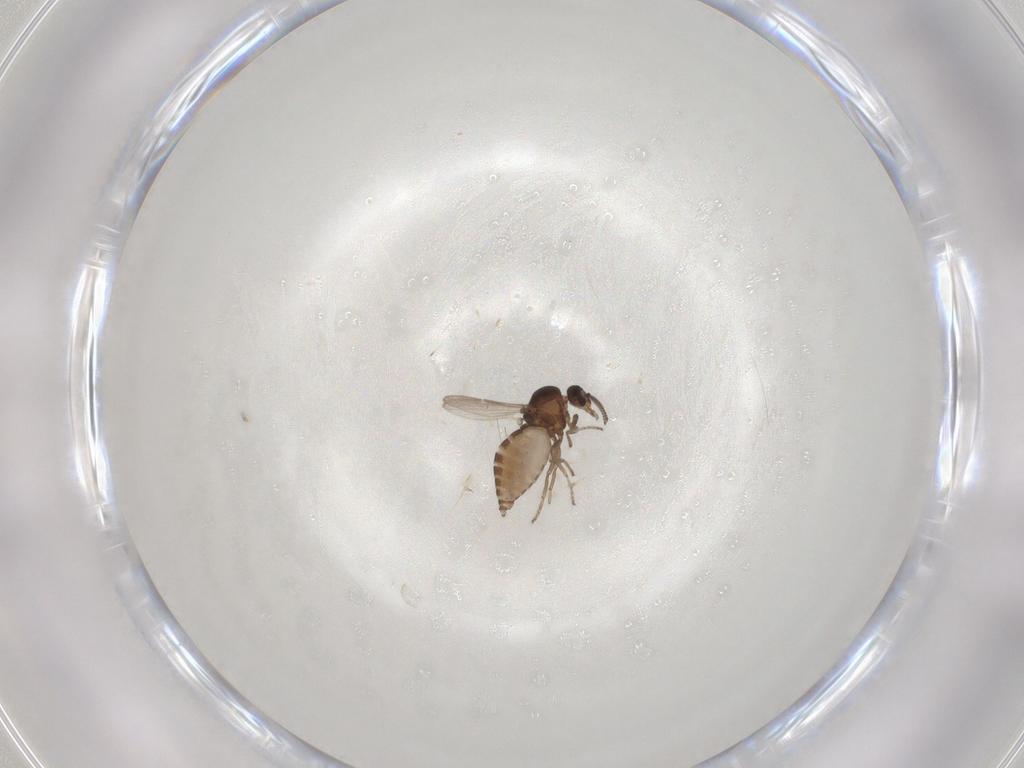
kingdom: Animalia
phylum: Arthropoda
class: Insecta
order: Diptera
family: Ceratopogonidae
